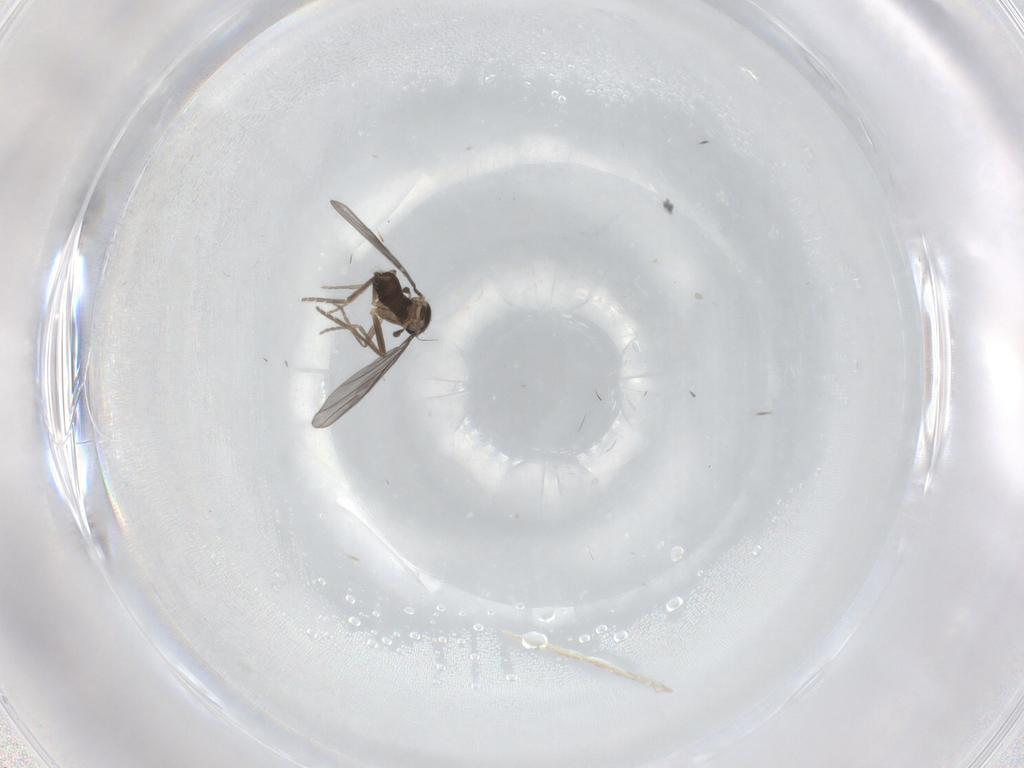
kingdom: Animalia
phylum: Arthropoda
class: Insecta
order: Diptera
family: Phoridae
